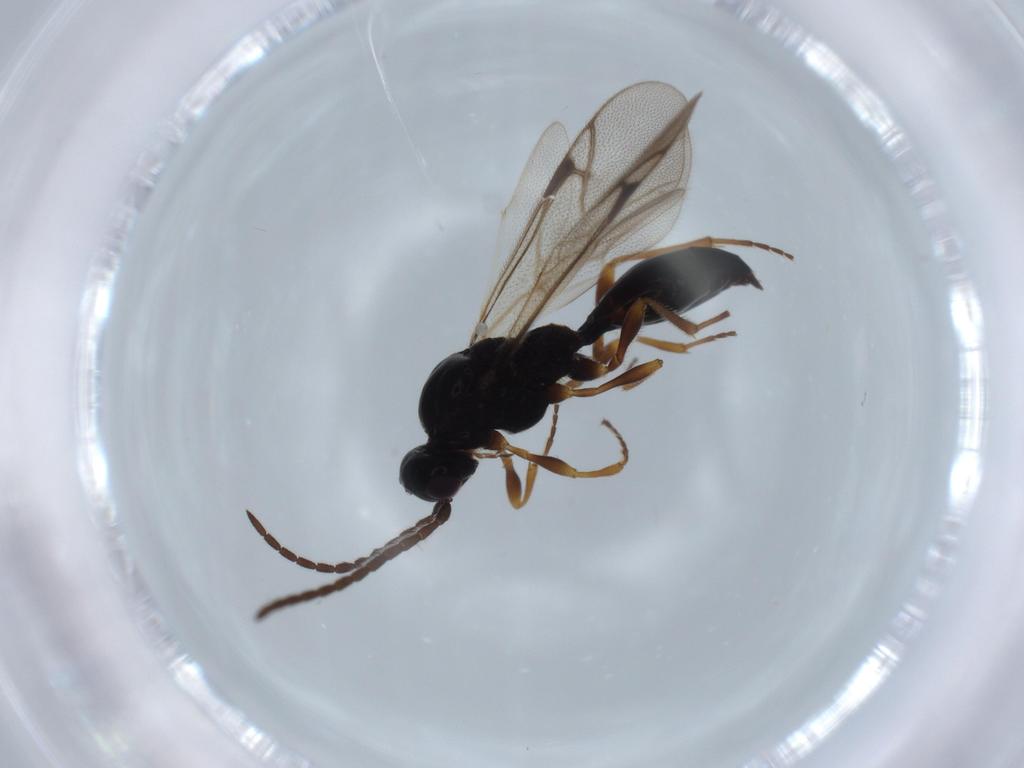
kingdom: Animalia
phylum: Arthropoda
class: Insecta
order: Hymenoptera
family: Proctotrupidae
